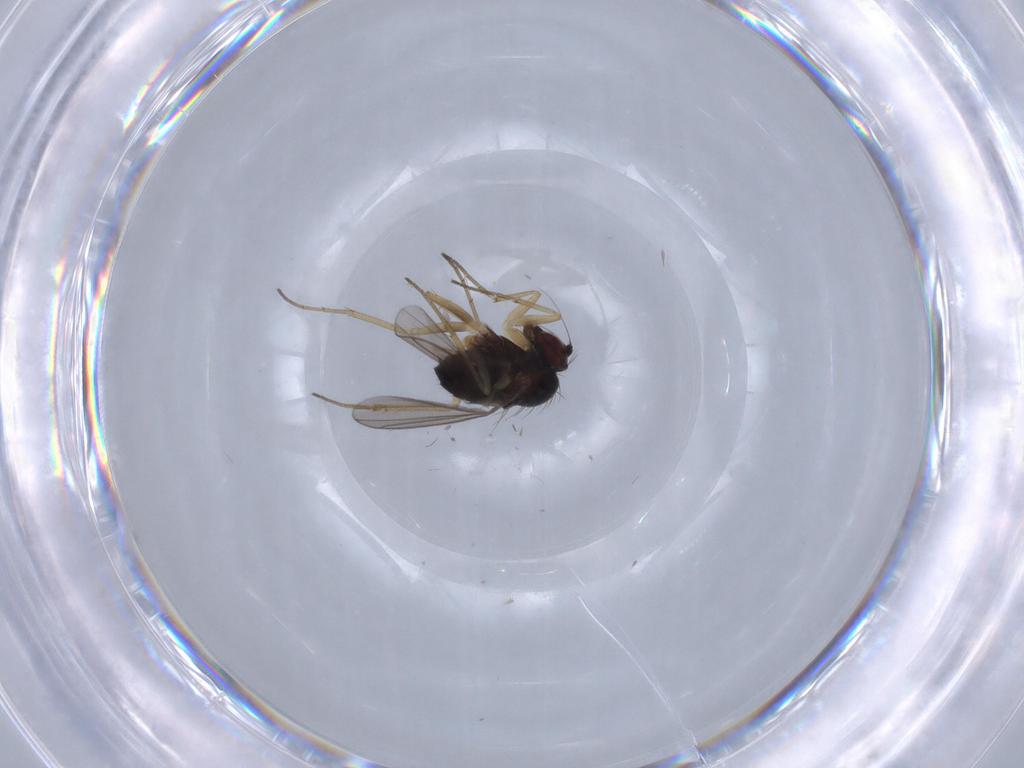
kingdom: Animalia
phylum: Arthropoda
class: Insecta
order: Diptera
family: Dolichopodidae
